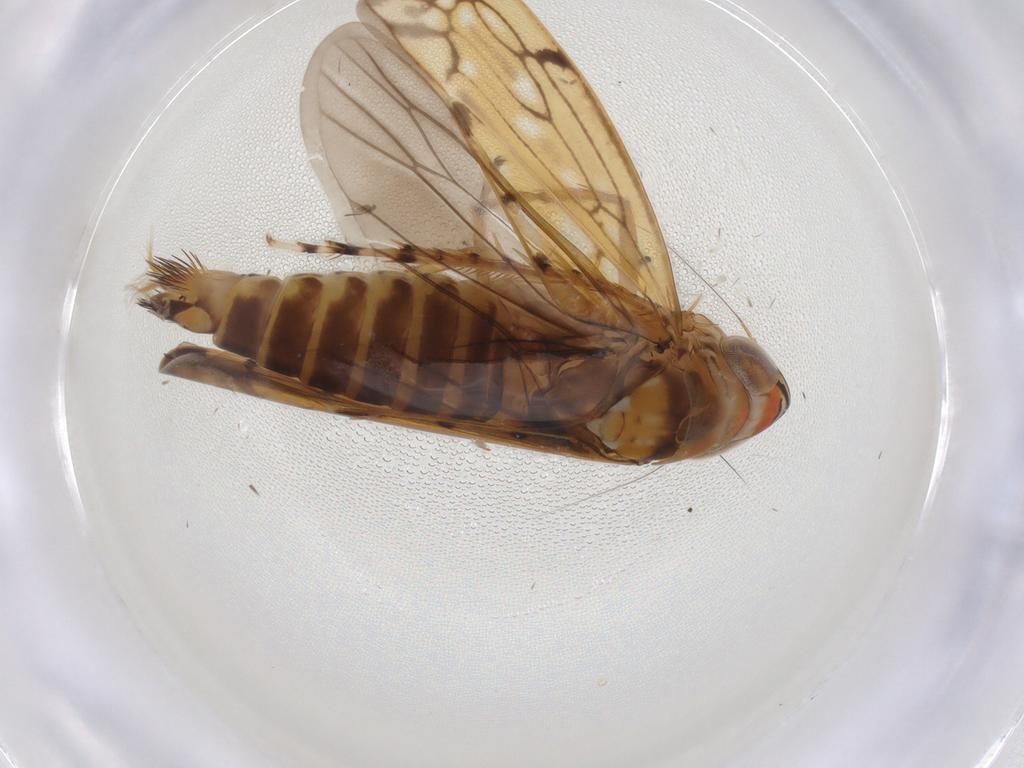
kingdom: Animalia
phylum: Arthropoda
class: Insecta
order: Hemiptera
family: Cicadellidae
